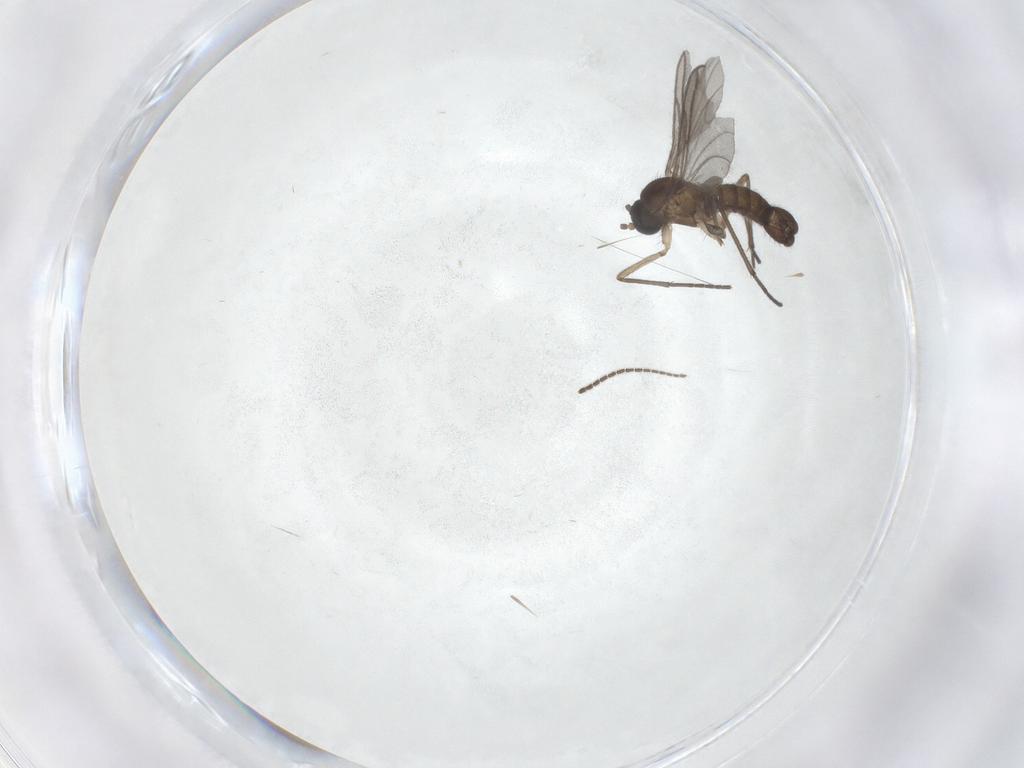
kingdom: Animalia
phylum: Arthropoda
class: Insecta
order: Diptera
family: Sciaridae
